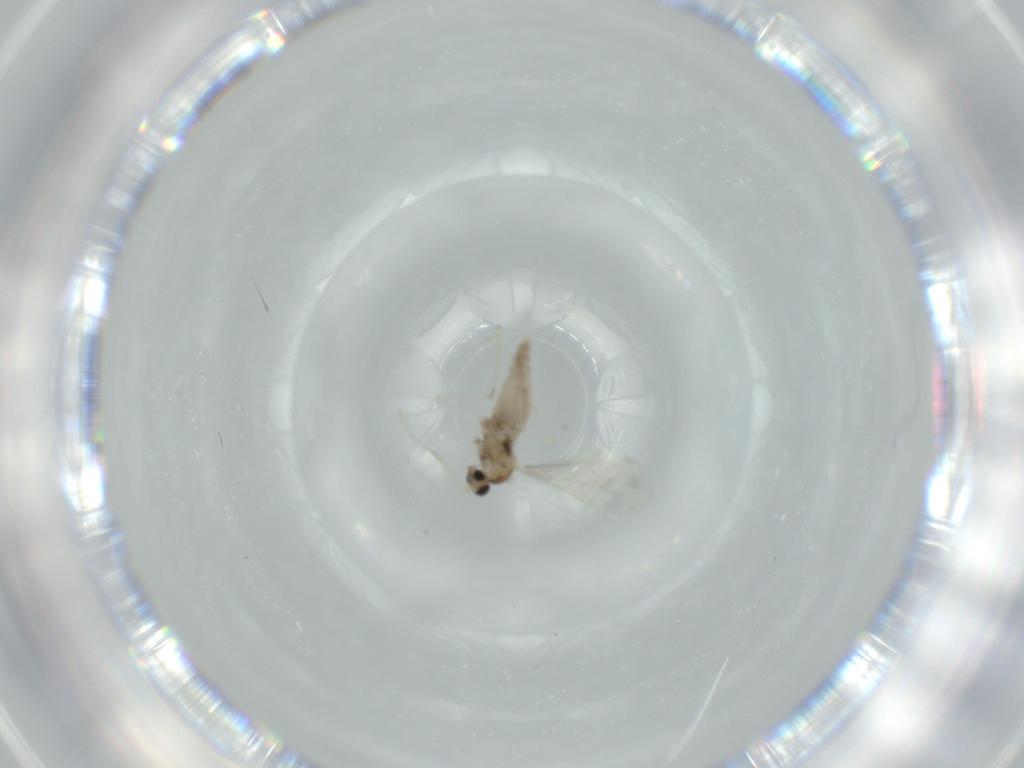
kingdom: Animalia
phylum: Arthropoda
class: Insecta
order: Diptera
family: Cecidomyiidae
